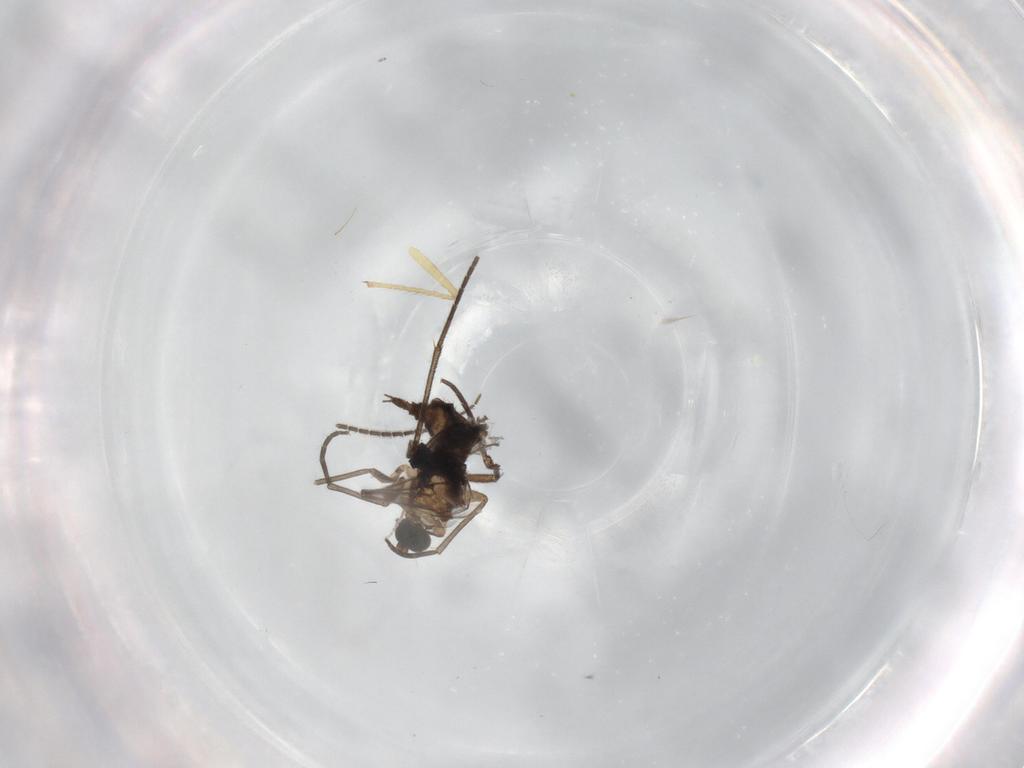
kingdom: Animalia
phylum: Arthropoda
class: Insecta
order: Diptera
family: Sciaridae
